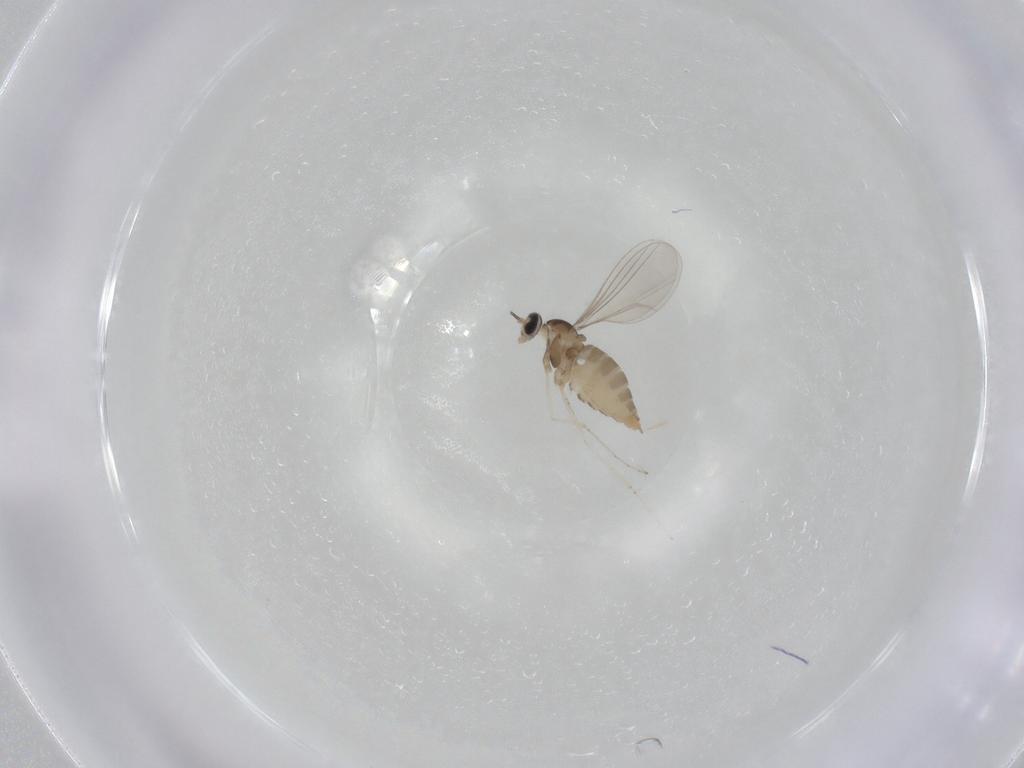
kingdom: Animalia
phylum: Arthropoda
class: Insecta
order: Diptera
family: Cecidomyiidae
